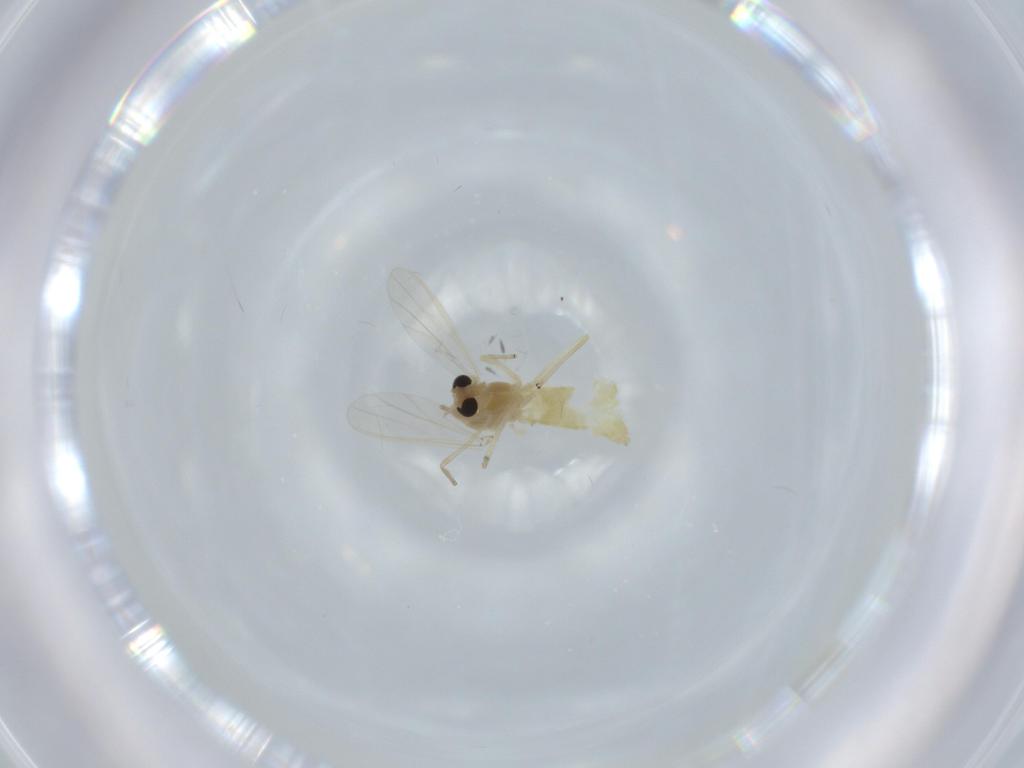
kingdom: Animalia
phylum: Arthropoda
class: Insecta
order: Diptera
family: Chironomidae
